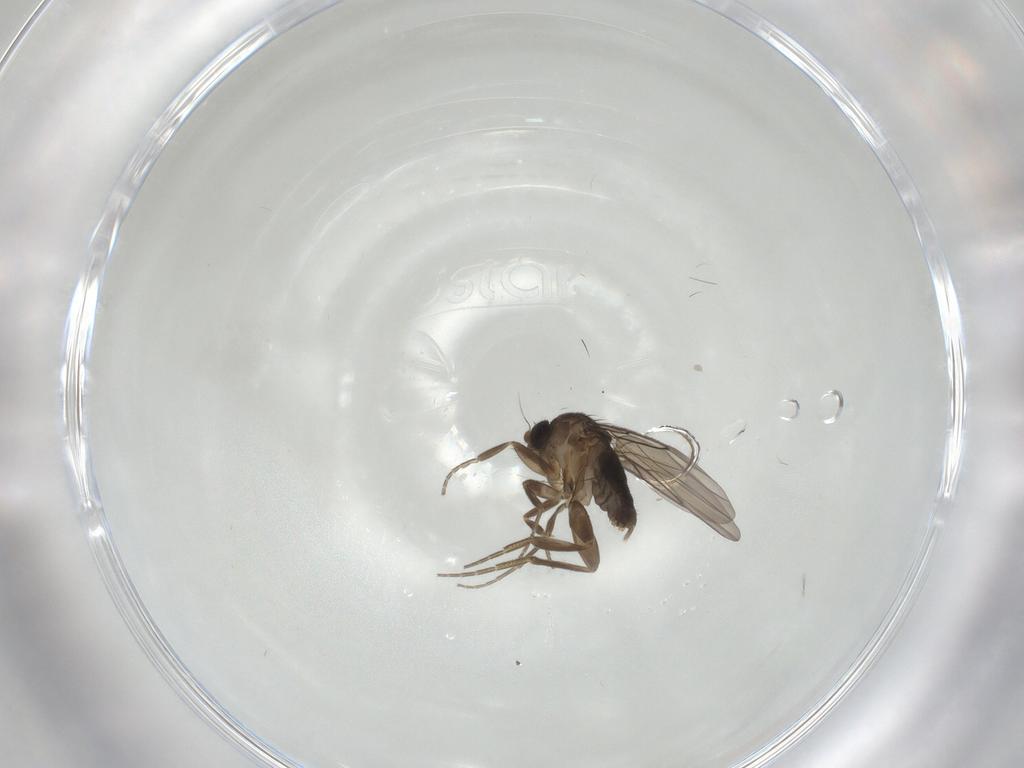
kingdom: Animalia
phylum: Arthropoda
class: Insecta
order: Diptera
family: Phoridae
